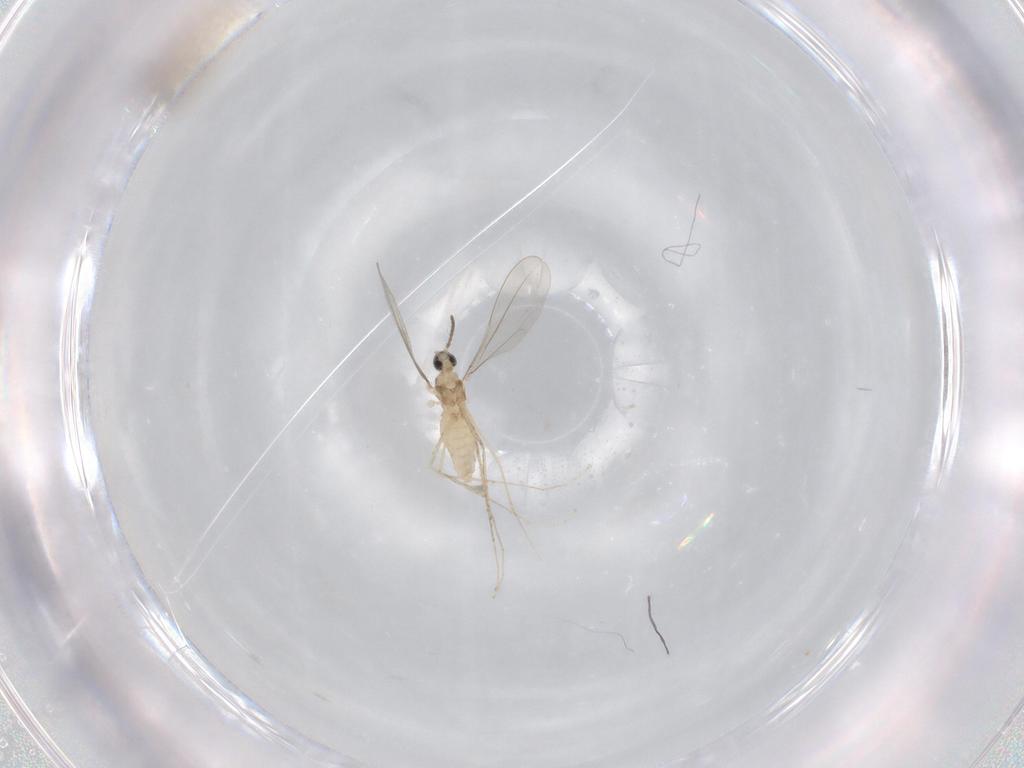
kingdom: Animalia
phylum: Arthropoda
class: Insecta
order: Diptera
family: Cecidomyiidae
